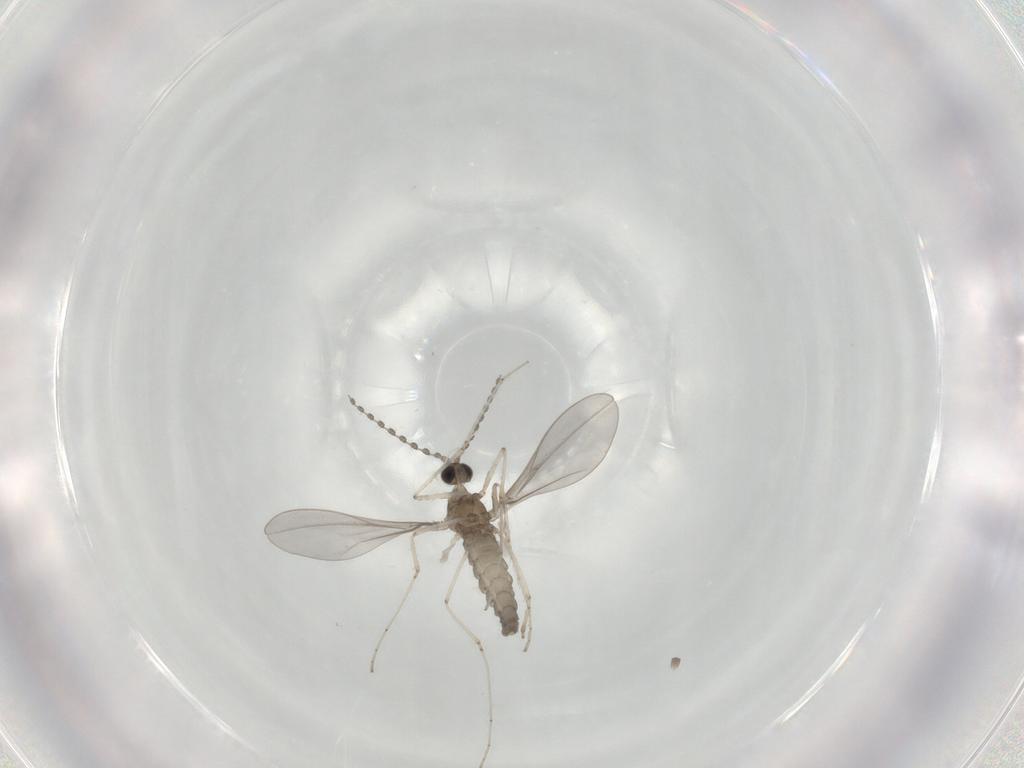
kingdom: Animalia
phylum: Arthropoda
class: Insecta
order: Diptera
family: Cecidomyiidae
